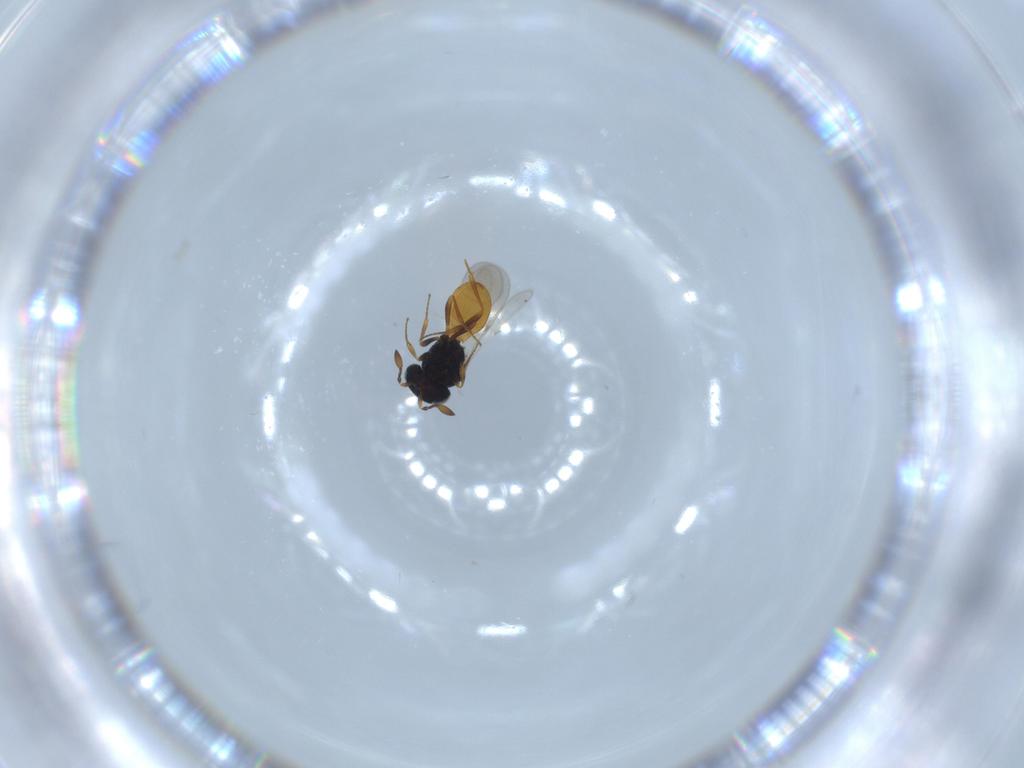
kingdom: Animalia
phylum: Arthropoda
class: Insecta
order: Hymenoptera
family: Scelionidae
